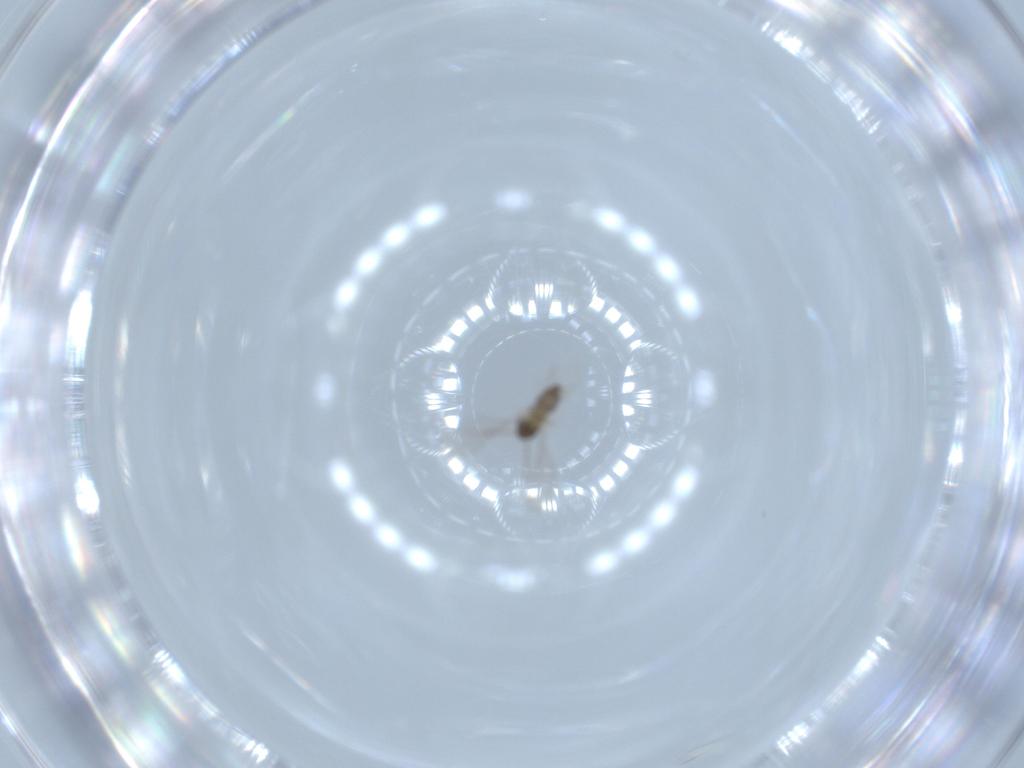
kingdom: Animalia
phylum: Arthropoda
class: Insecta
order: Diptera
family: Cecidomyiidae
